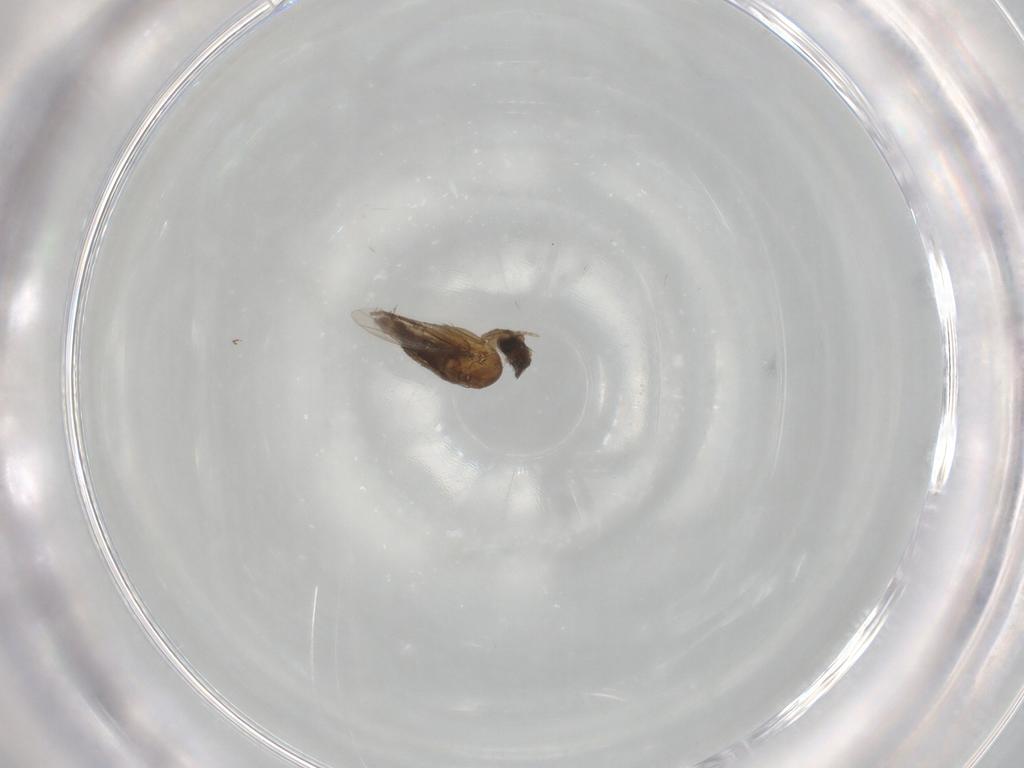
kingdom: Animalia
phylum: Arthropoda
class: Insecta
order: Diptera
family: Phoridae
